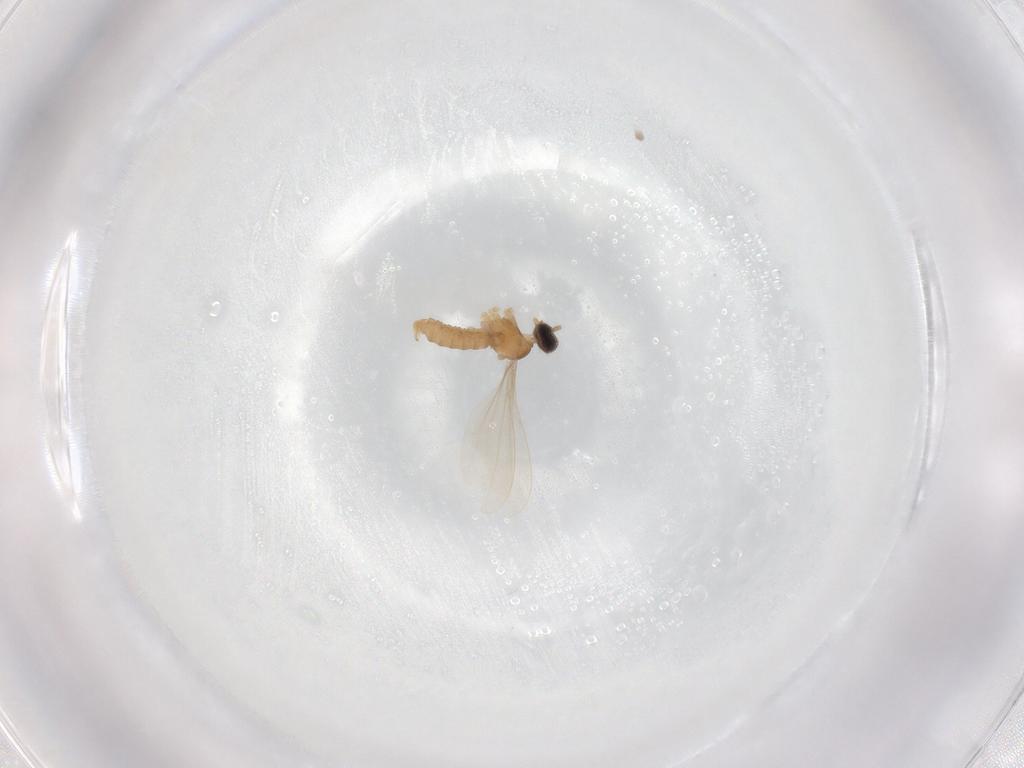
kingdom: Animalia
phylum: Arthropoda
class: Insecta
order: Diptera
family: Cecidomyiidae
